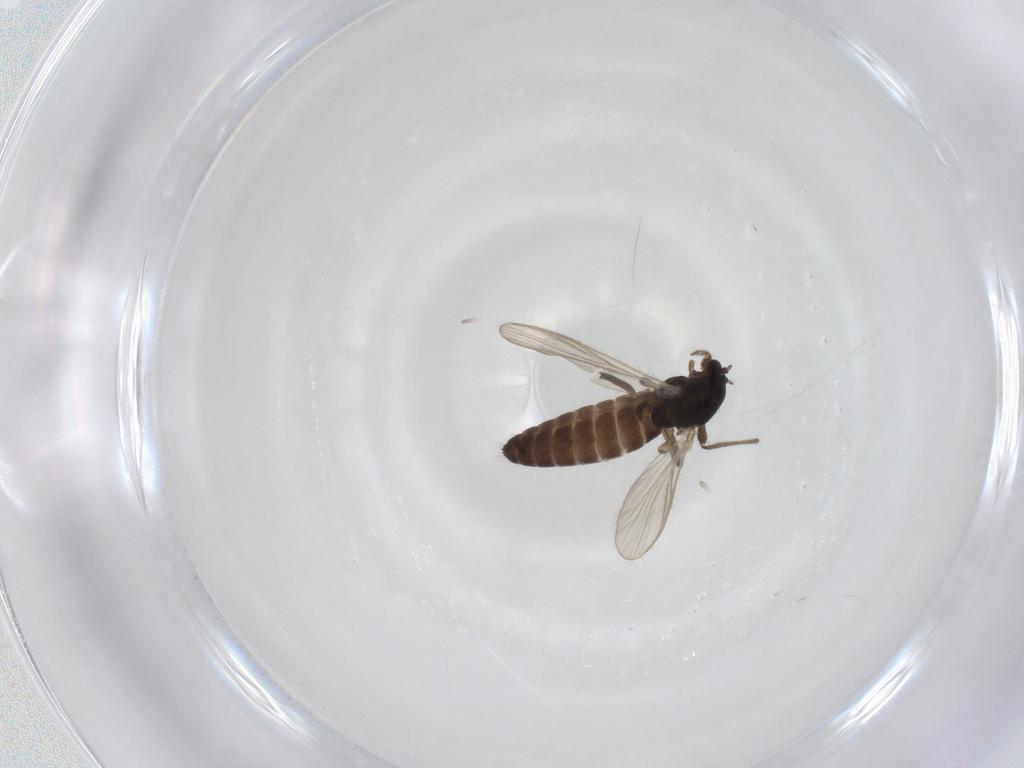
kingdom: Animalia
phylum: Arthropoda
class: Insecta
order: Diptera
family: Chironomidae
